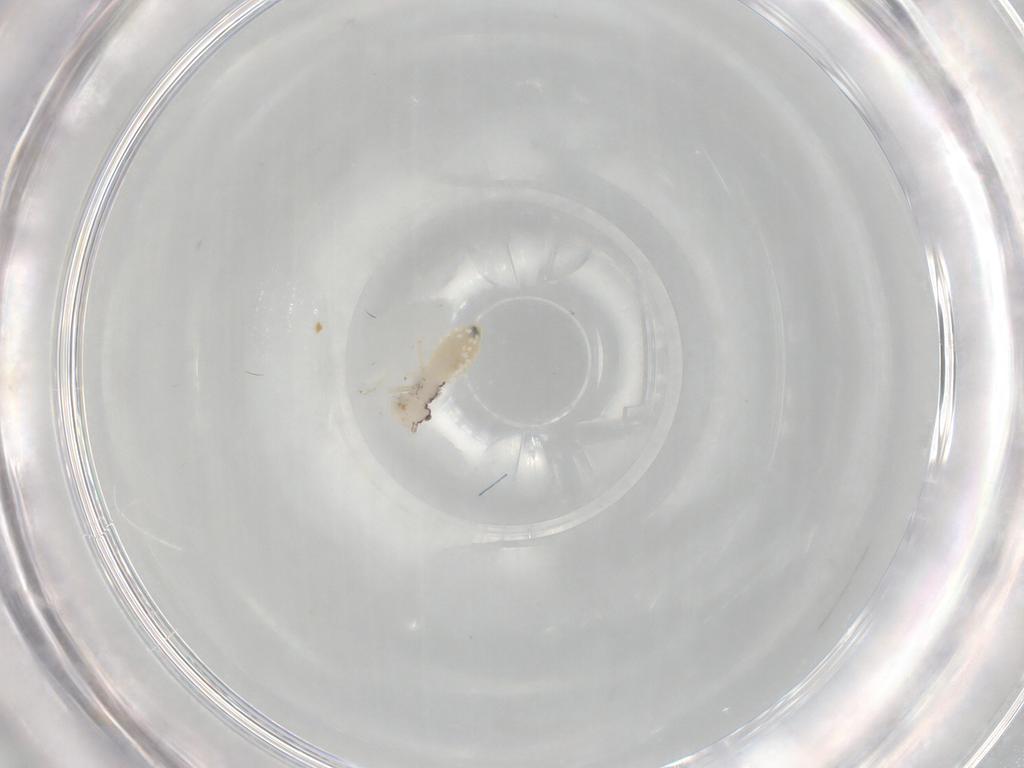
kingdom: Animalia
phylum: Arthropoda
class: Insecta
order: Psocodea
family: Pseudocaeciliidae
